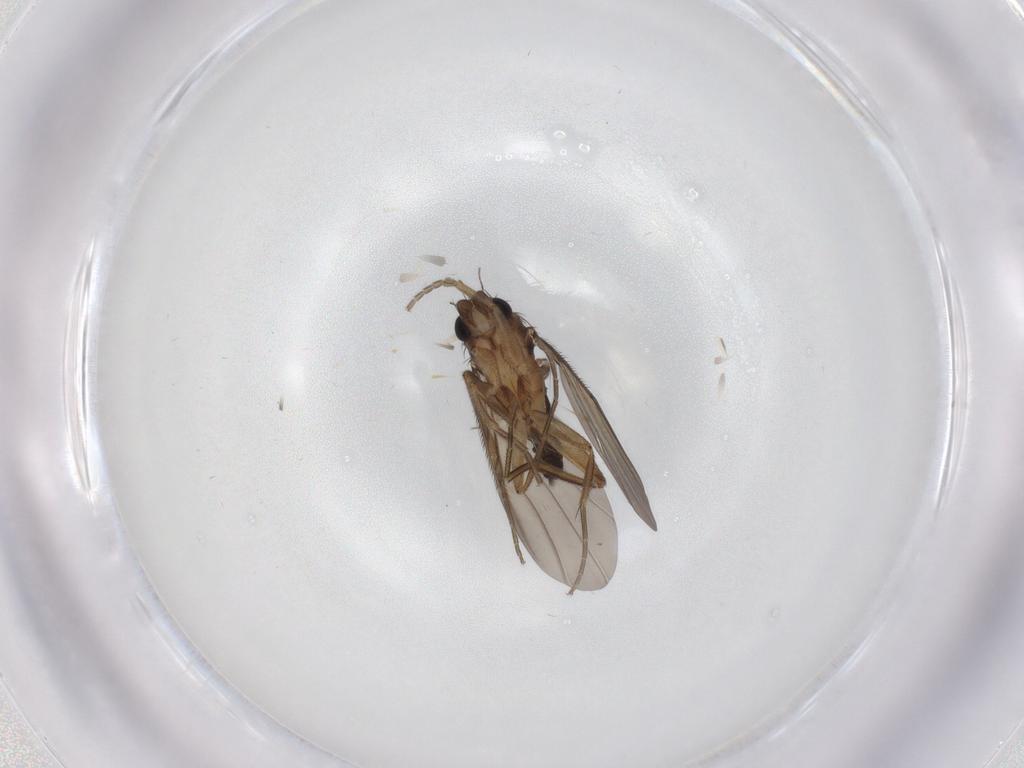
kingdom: Animalia
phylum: Arthropoda
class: Insecta
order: Diptera
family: Phoridae
